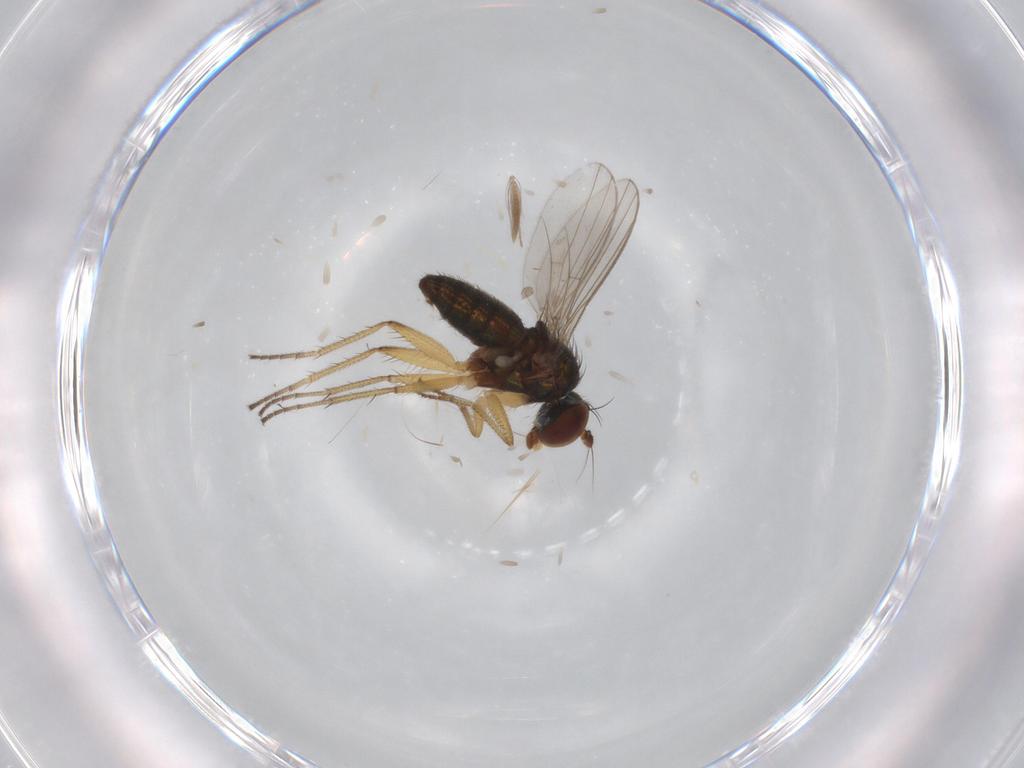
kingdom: Animalia
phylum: Arthropoda
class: Insecta
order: Diptera
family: Ceratopogonidae
